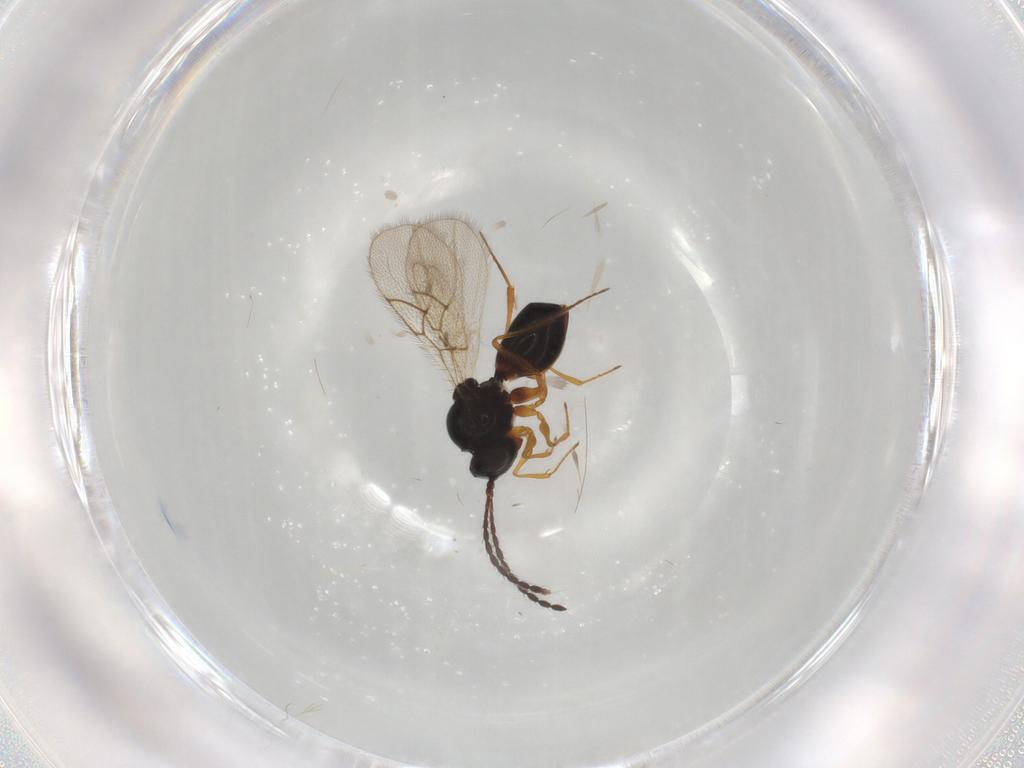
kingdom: Animalia
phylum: Arthropoda
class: Insecta
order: Hymenoptera
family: Figitidae
